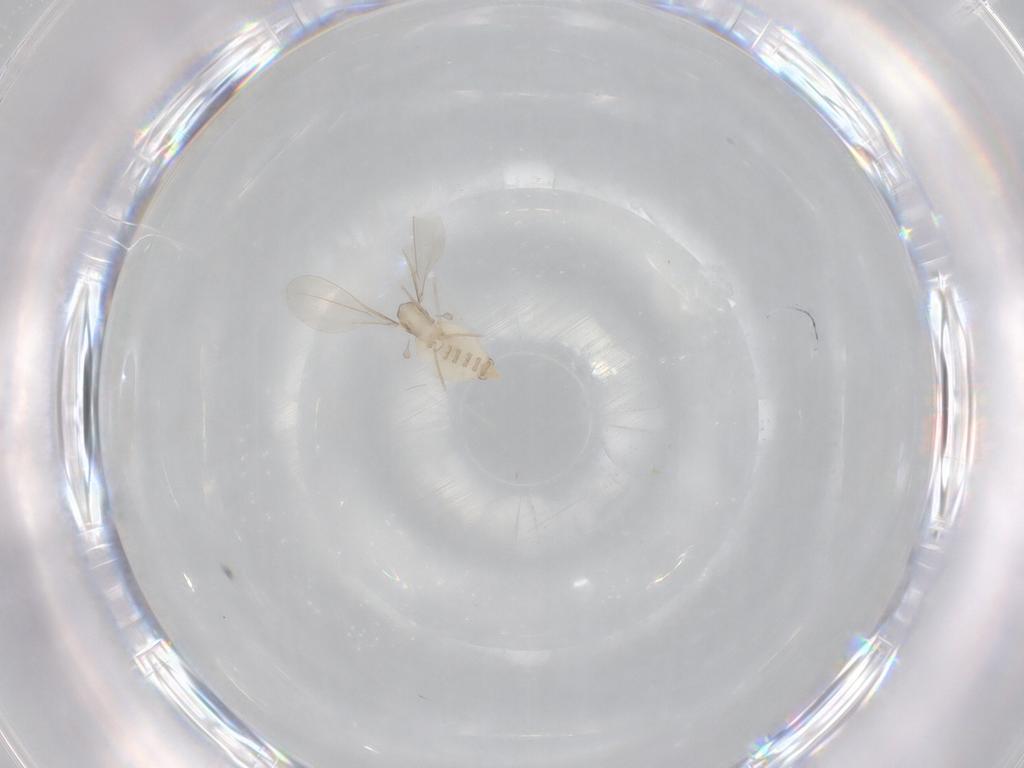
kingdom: Animalia
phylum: Arthropoda
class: Insecta
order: Diptera
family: Cecidomyiidae
